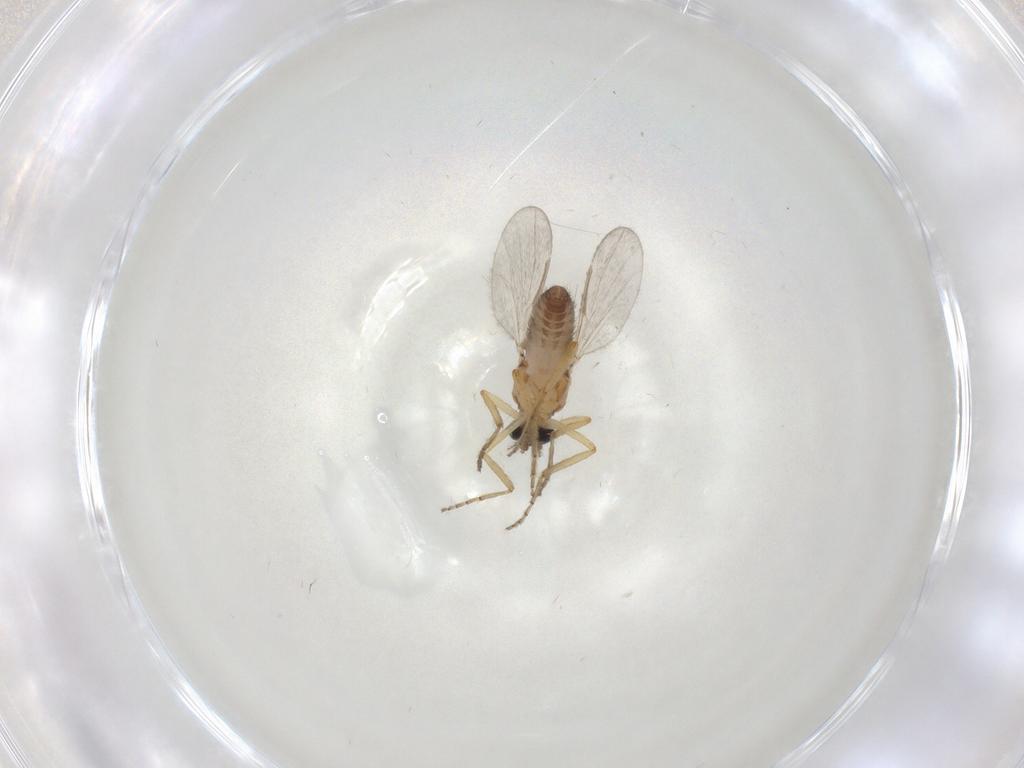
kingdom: Animalia
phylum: Arthropoda
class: Insecta
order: Diptera
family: Ceratopogonidae
